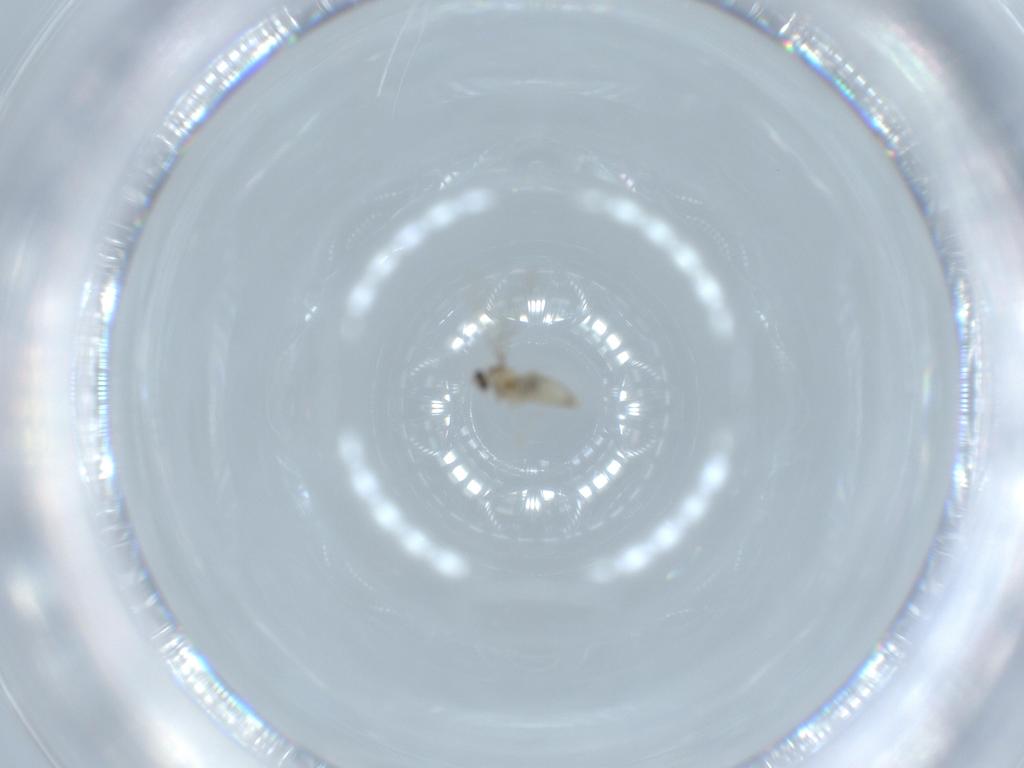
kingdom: Animalia
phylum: Arthropoda
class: Insecta
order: Diptera
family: Cecidomyiidae
